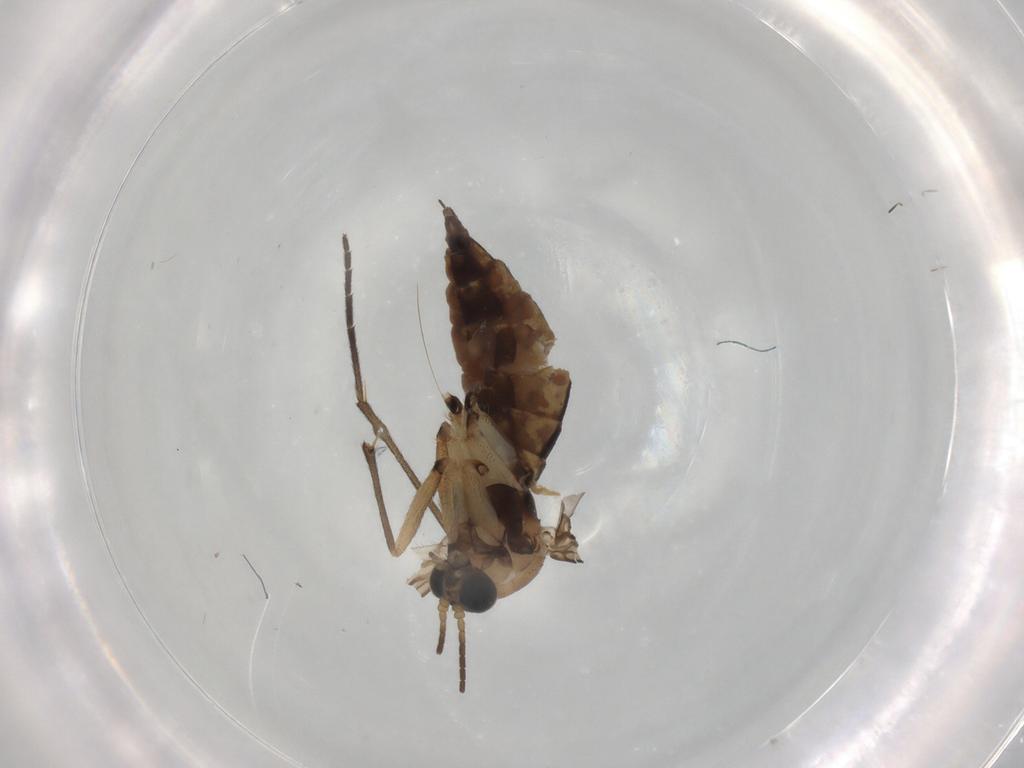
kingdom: Animalia
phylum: Arthropoda
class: Insecta
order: Diptera
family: Sciaridae
